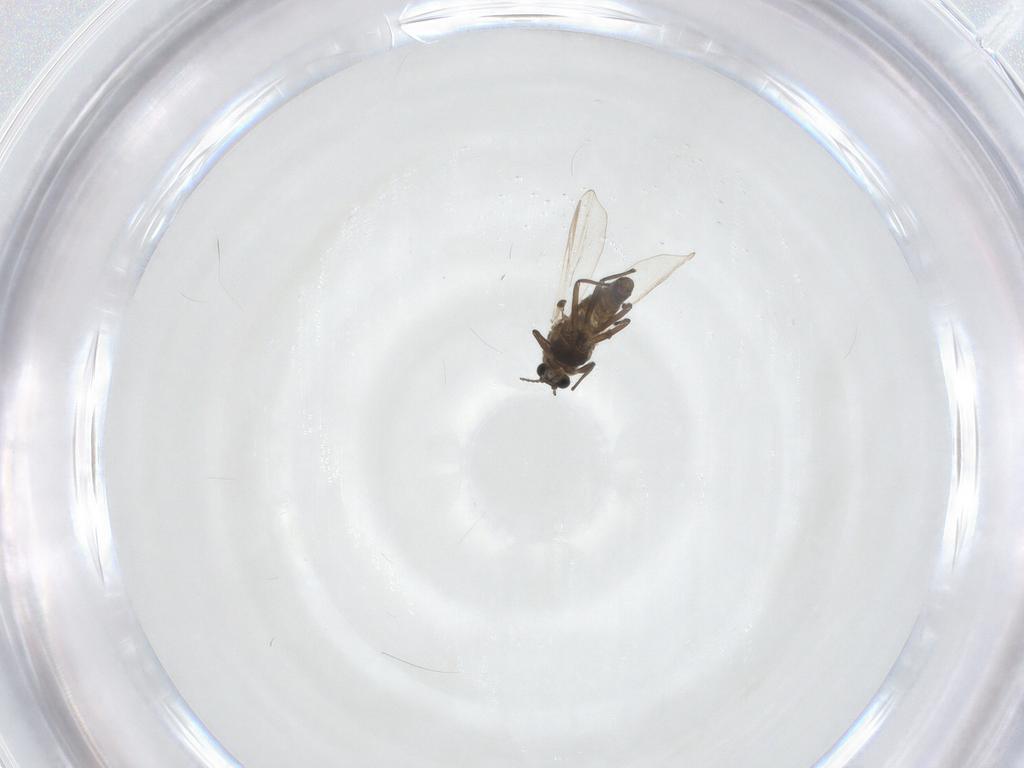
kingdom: Animalia
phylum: Arthropoda
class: Insecta
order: Diptera
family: Chironomidae
